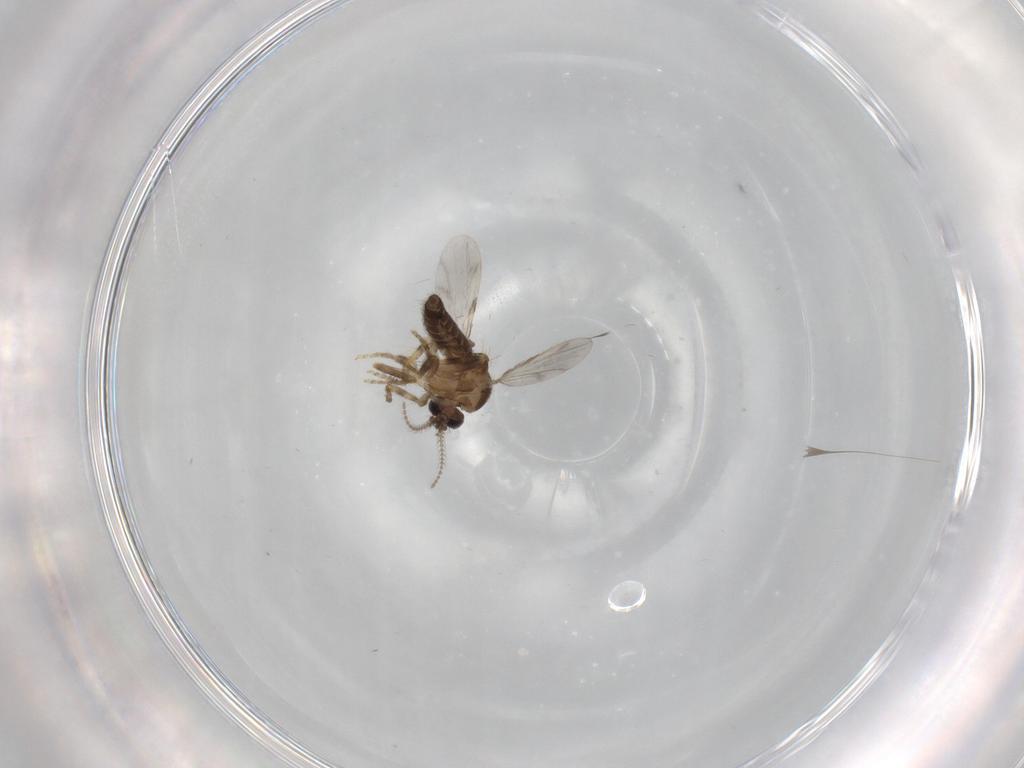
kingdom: Animalia
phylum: Arthropoda
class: Insecta
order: Diptera
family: Ceratopogonidae
